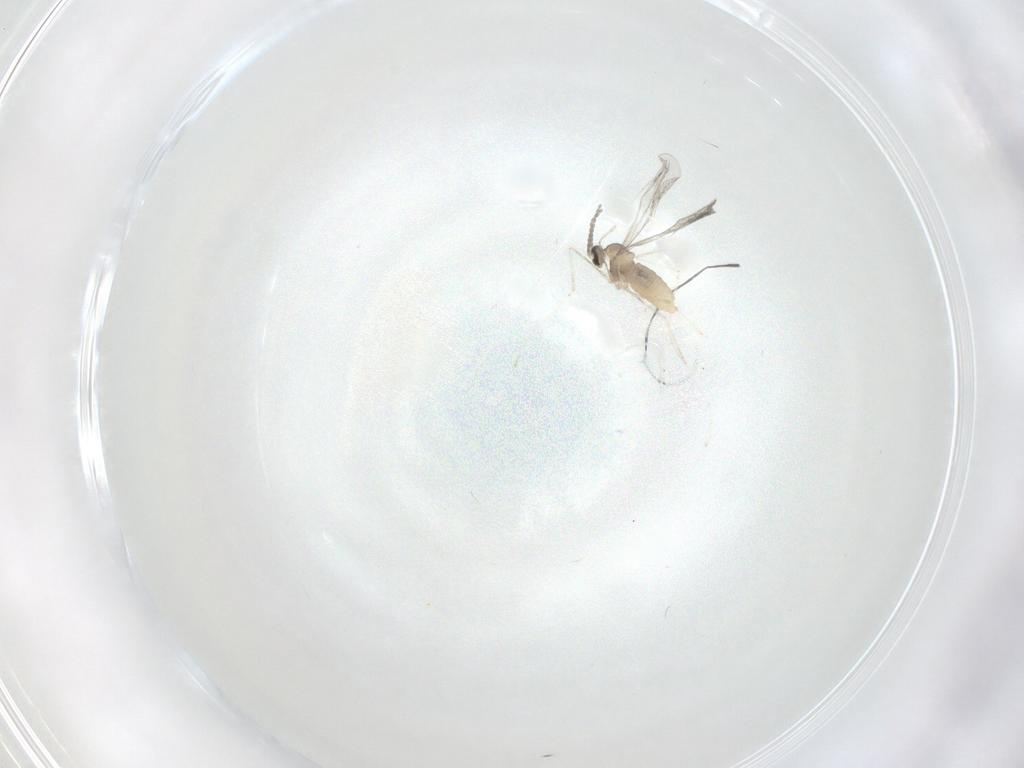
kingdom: Animalia
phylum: Arthropoda
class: Insecta
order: Diptera
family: Cecidomyiidae
